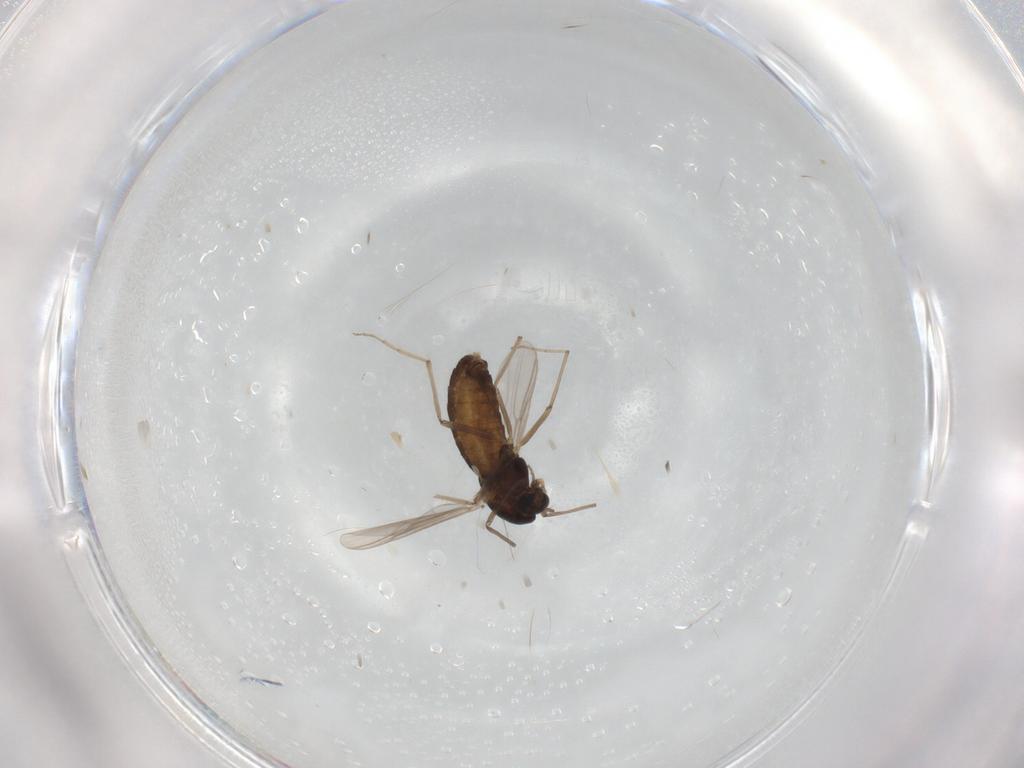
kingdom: Animalia
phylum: Arthropoda
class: Insecta
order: Diptera
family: Chironomidae
